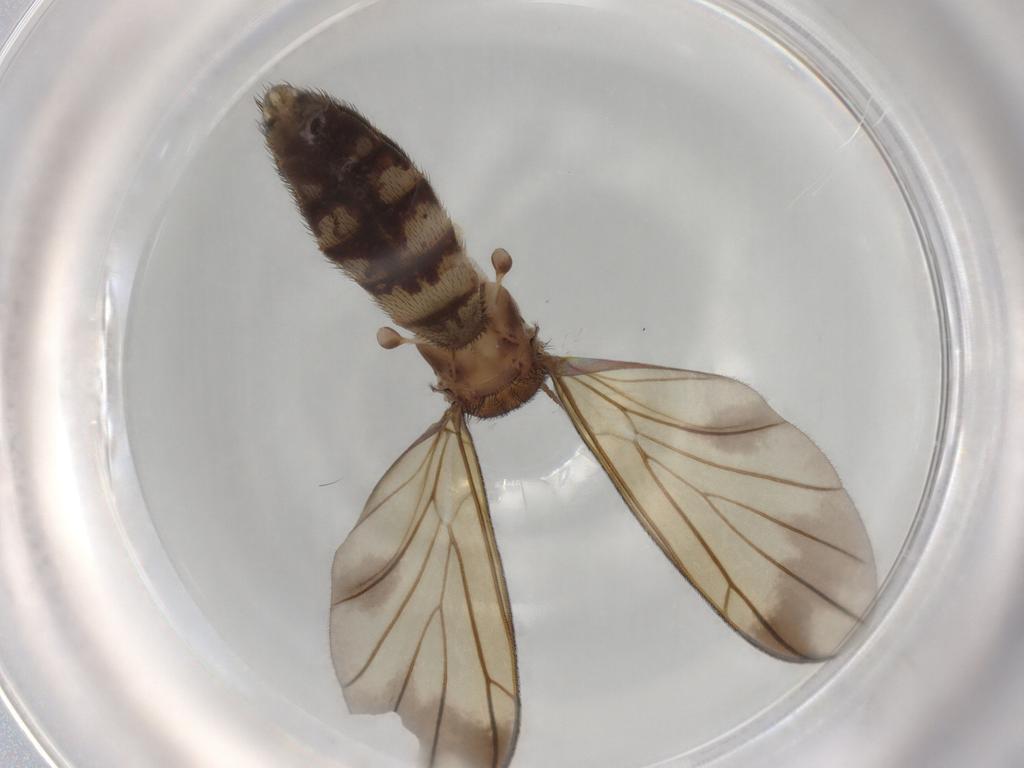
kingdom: Animalia
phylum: Arthropoda
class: Insecta
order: Diptera
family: Cecidomyiidae
